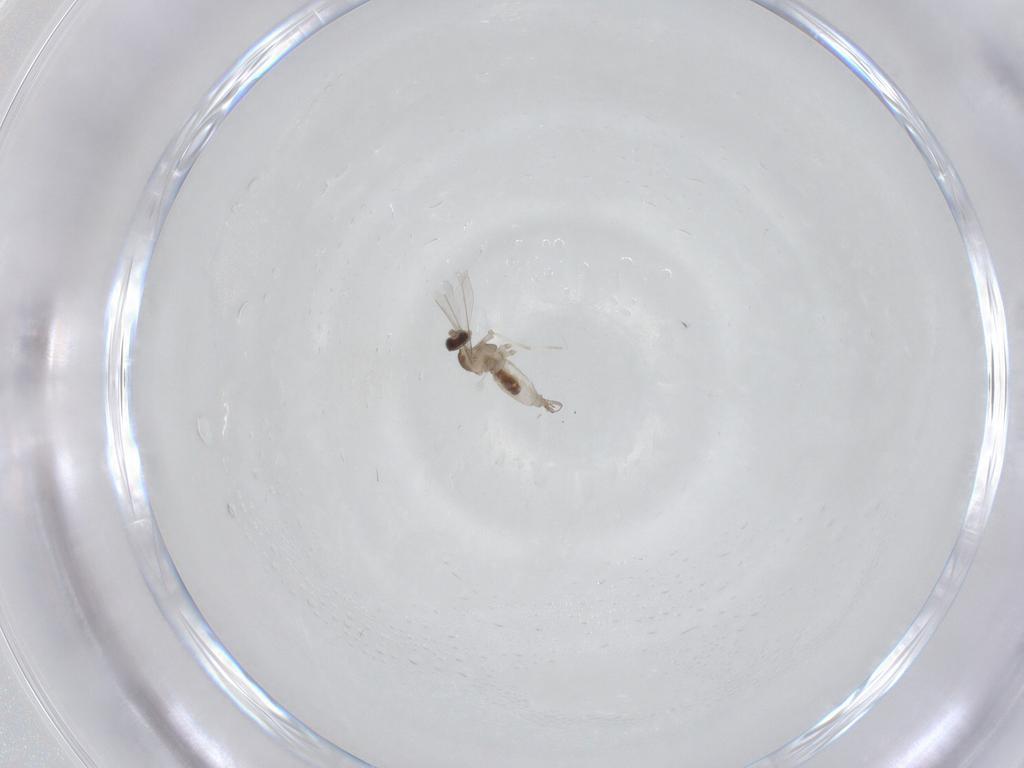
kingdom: Animalia
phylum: Arthropoda
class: Insecta
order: Diptera
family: Cecidomyiidae
